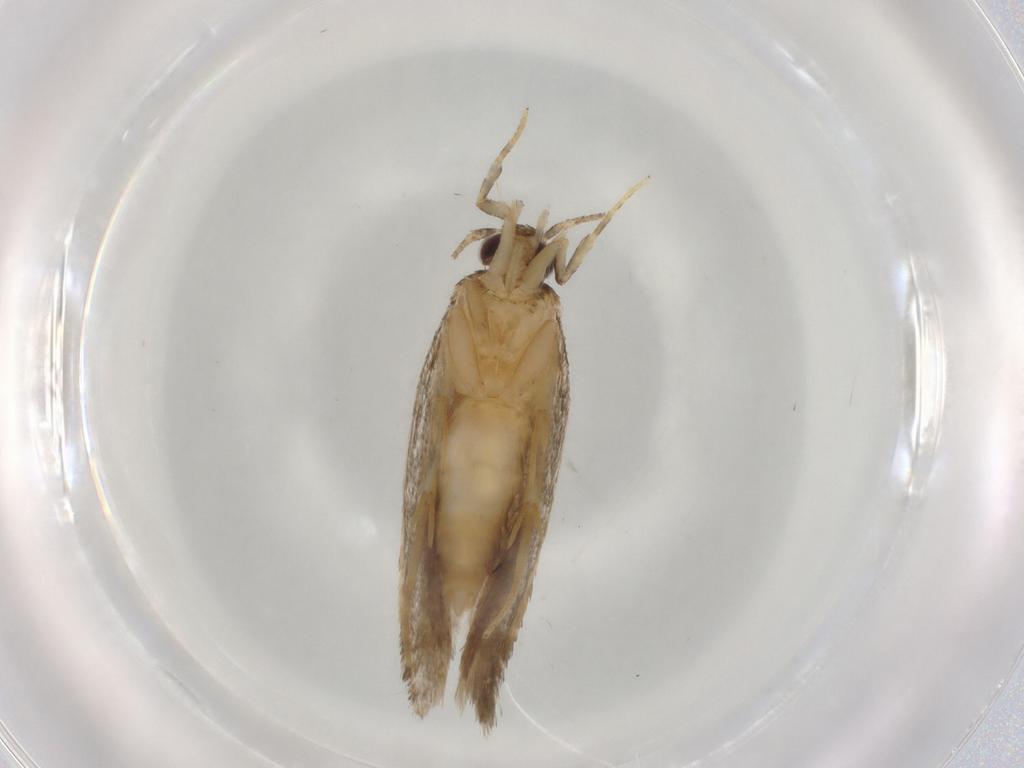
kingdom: Animalia
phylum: Arthropoda
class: Insecta
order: Lepidoptera
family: Autostichidae
